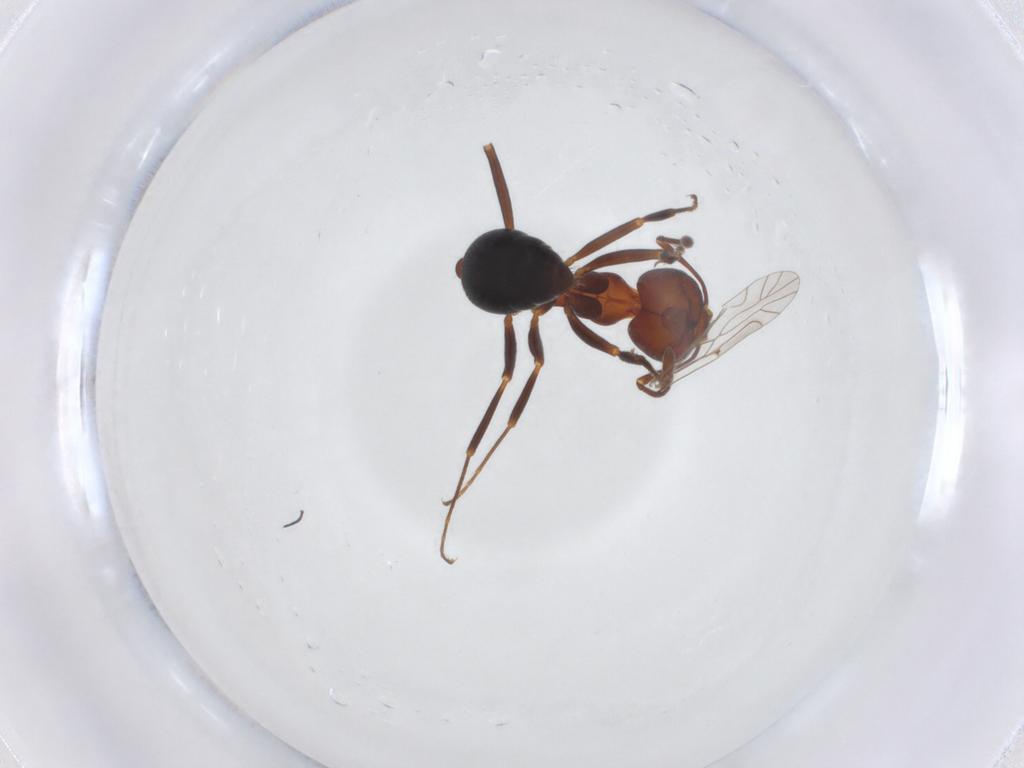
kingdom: Animalia
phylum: Arthropoda
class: Insecta
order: Hymenoptera
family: Formicidae
